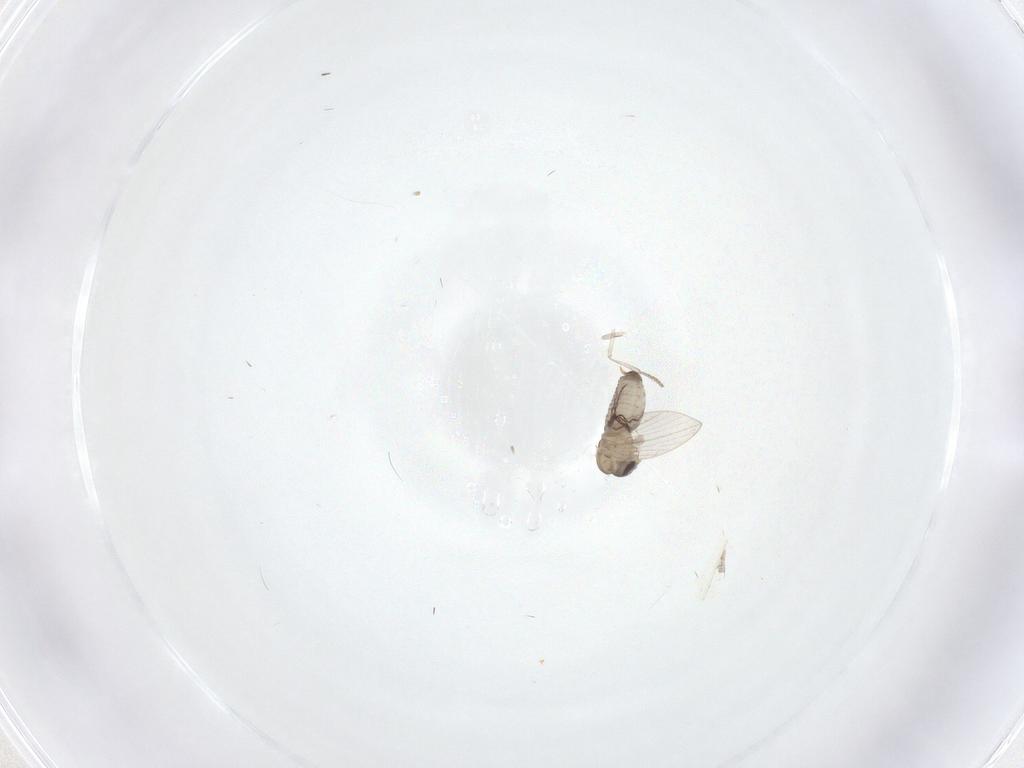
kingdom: Animalia
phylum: Arthropoda
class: Insecta
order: Diptera
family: Psychodidae
